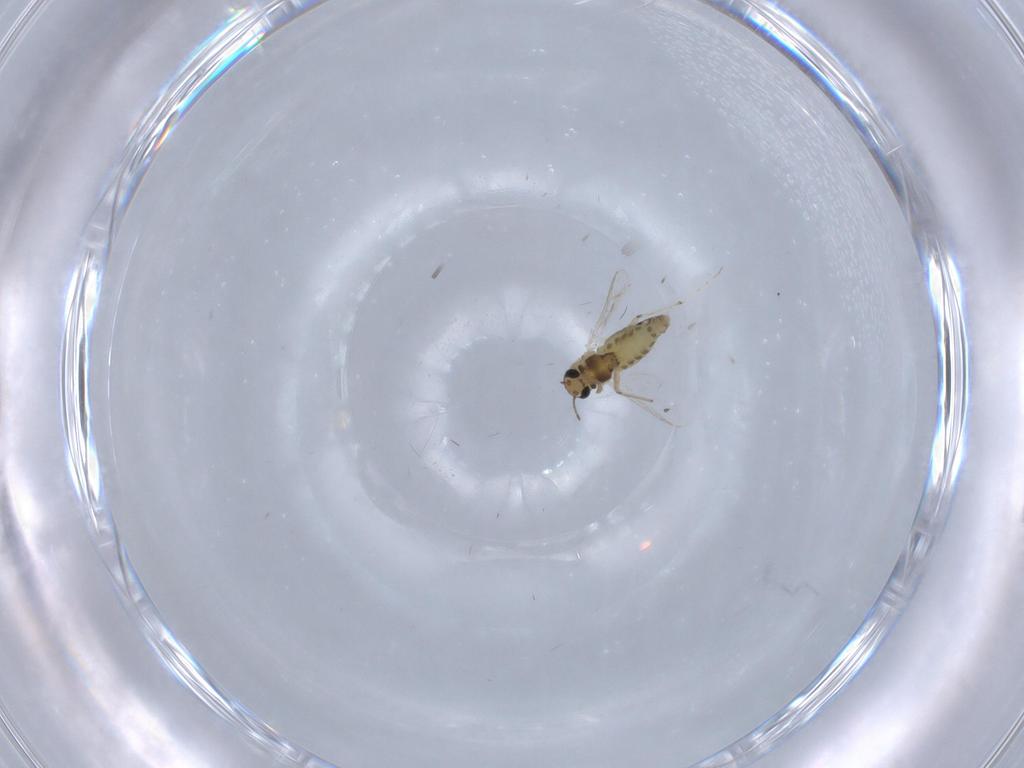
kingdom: Animalia
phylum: Arthropoda
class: Insecta
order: Diptera
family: Chironomidae
